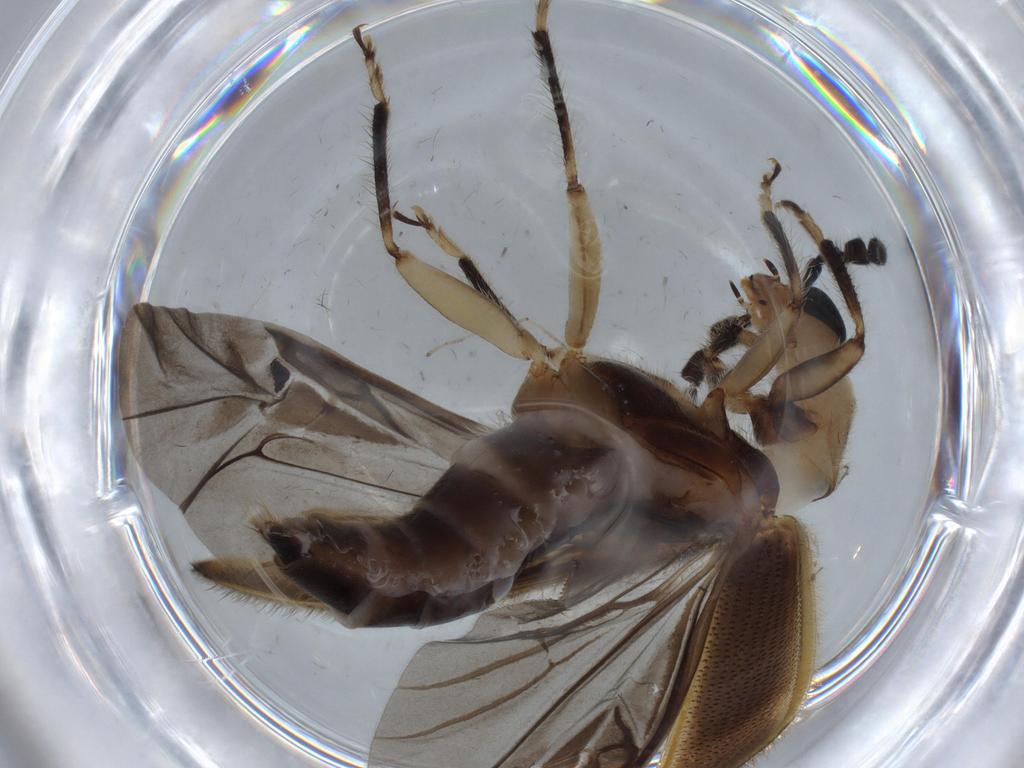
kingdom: Animalia
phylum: Arthropoda
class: Insecta
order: Coleoptera
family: Cleridae
